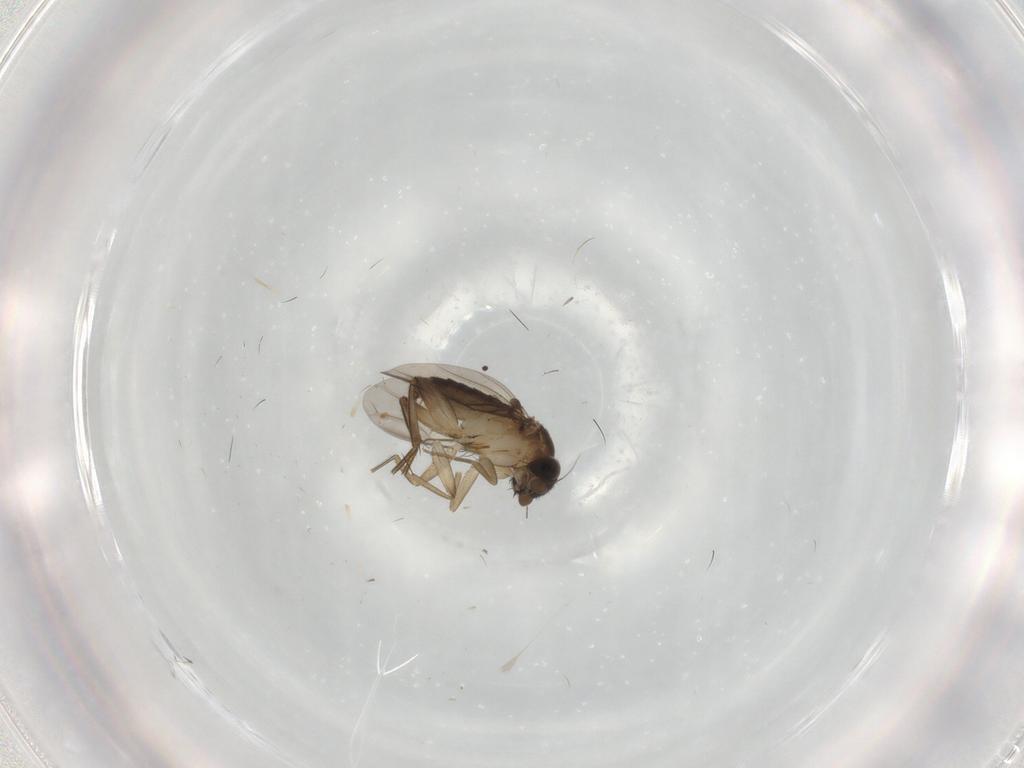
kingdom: Animalia
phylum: Arthropoda
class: Insecta
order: Diptera
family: Phoridae
